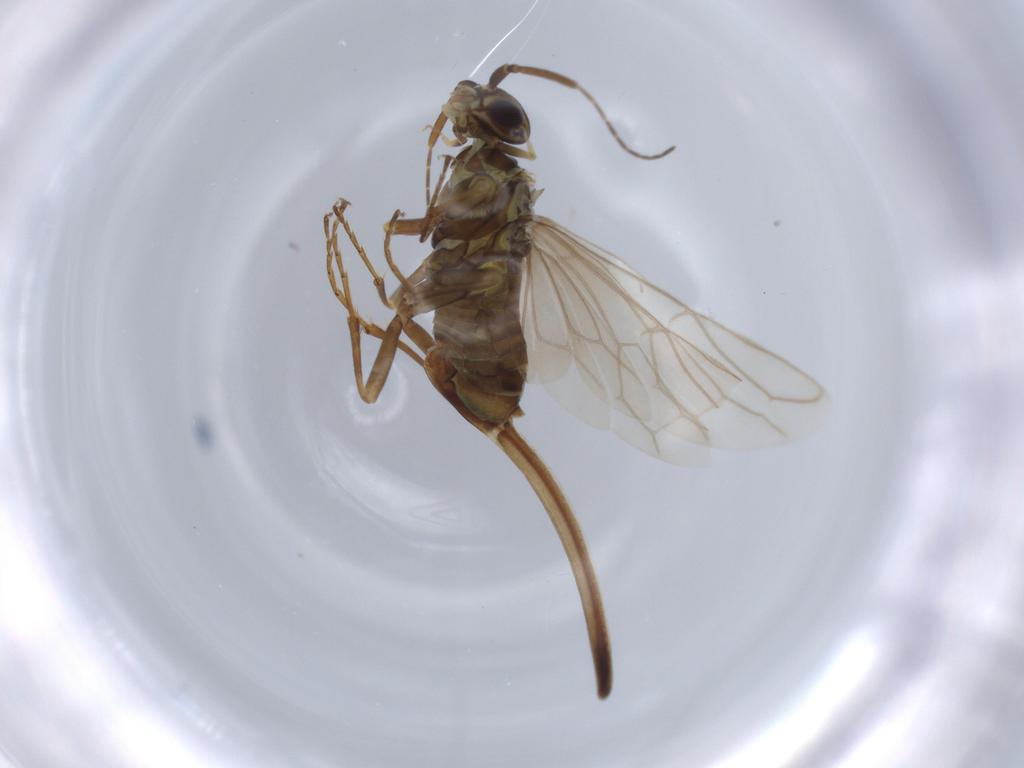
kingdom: Animalia
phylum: Arthropoda
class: Insecta
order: Hymenoptera
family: Xyelidae
